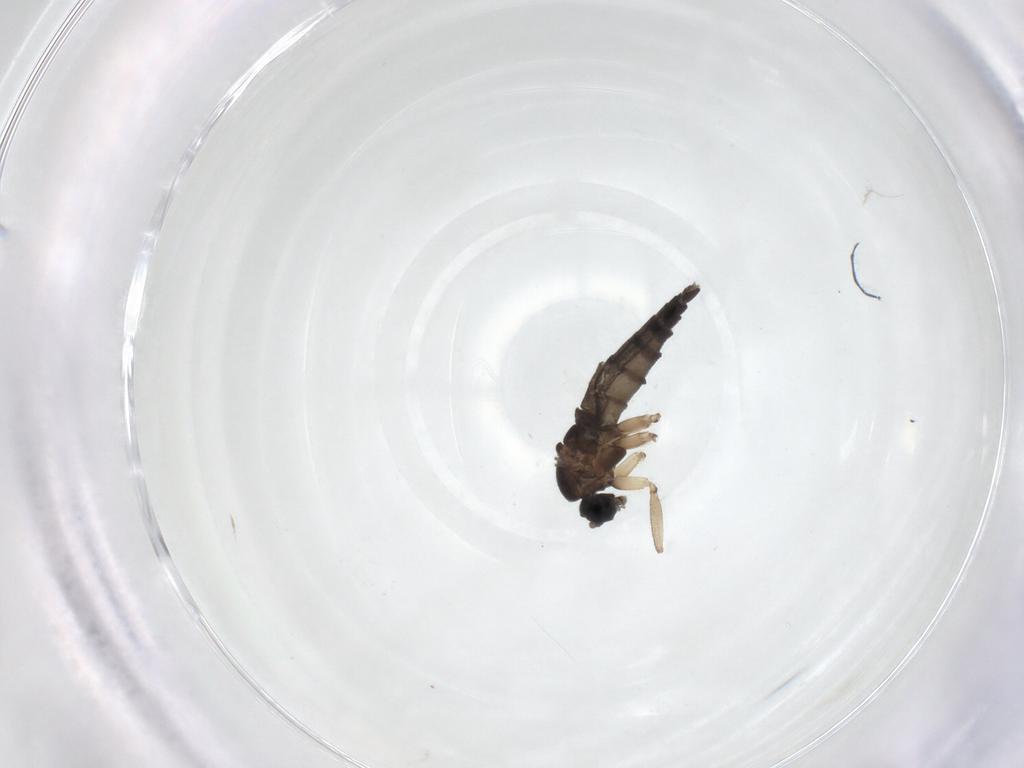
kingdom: Animalia
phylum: Arthropoda
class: Insecta
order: Diptera
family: Sciaridae
